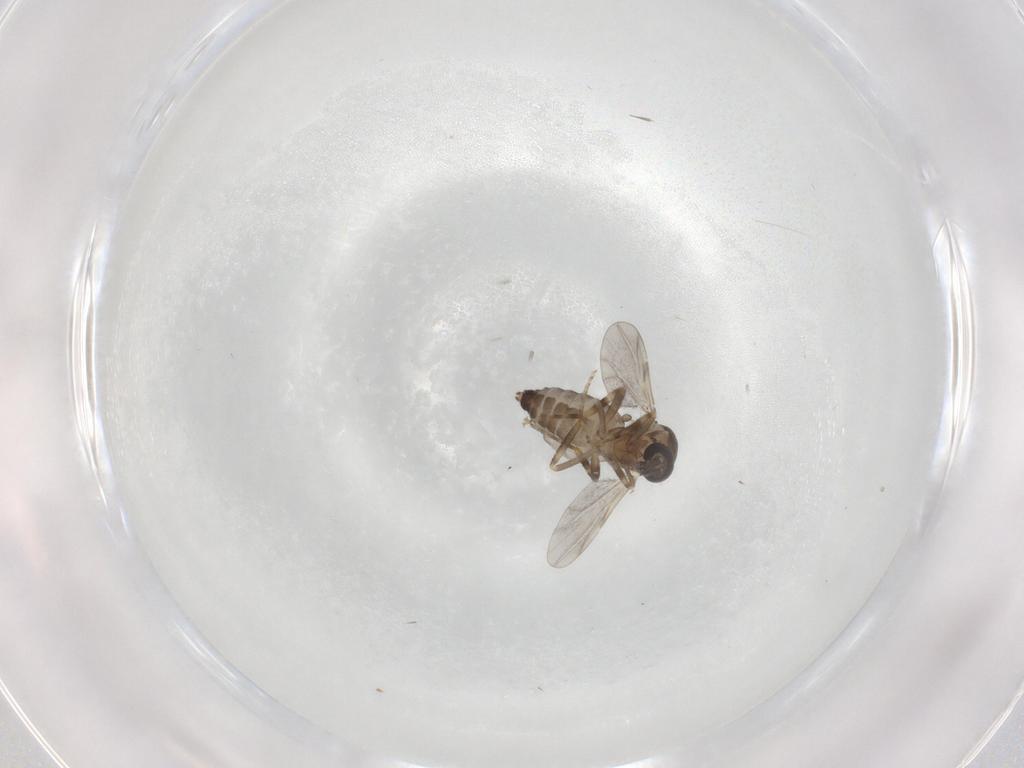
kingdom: Animalia
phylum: Arthropoda
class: Insecta
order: Diptera
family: Ceratopogonidae
